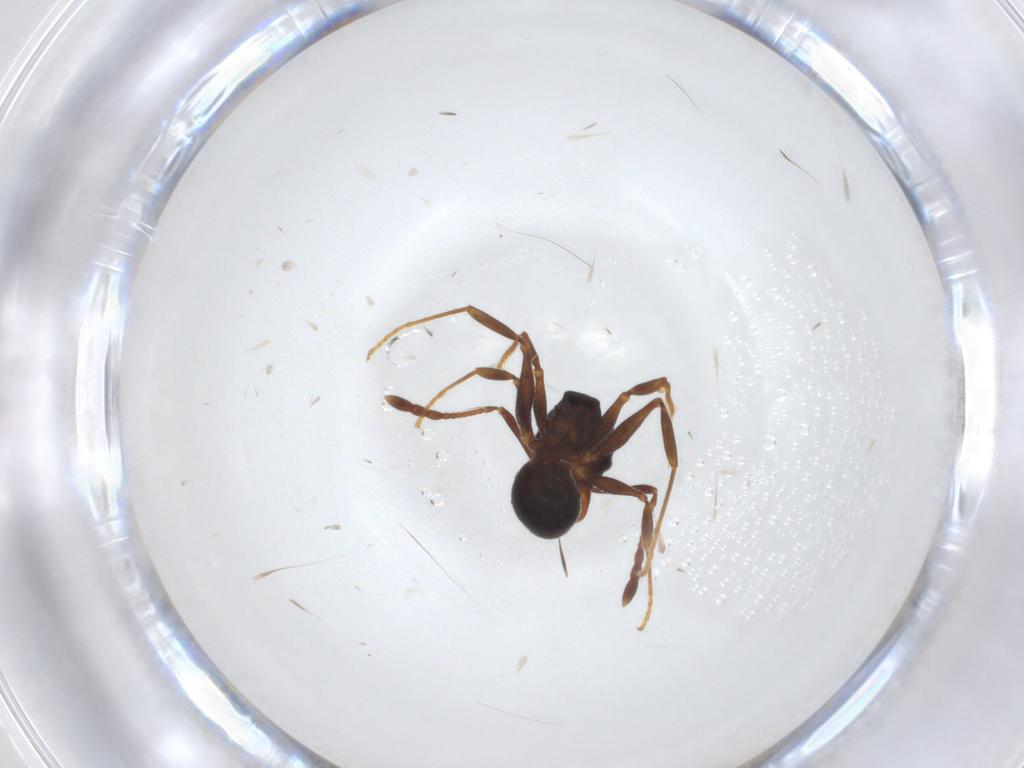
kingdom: Animalia
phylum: Arthropoda
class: Insecta
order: Hymenoptera
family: Formicidae
